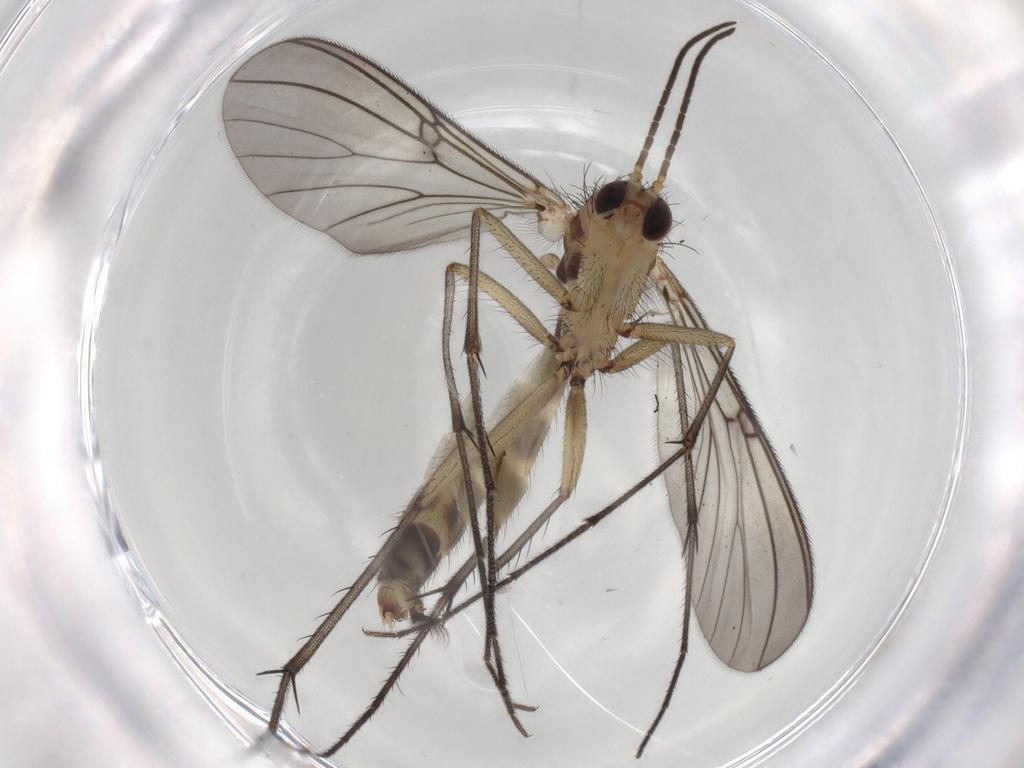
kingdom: Animalia
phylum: Arthropoda
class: Insecta
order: Diptera
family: Phoridae
